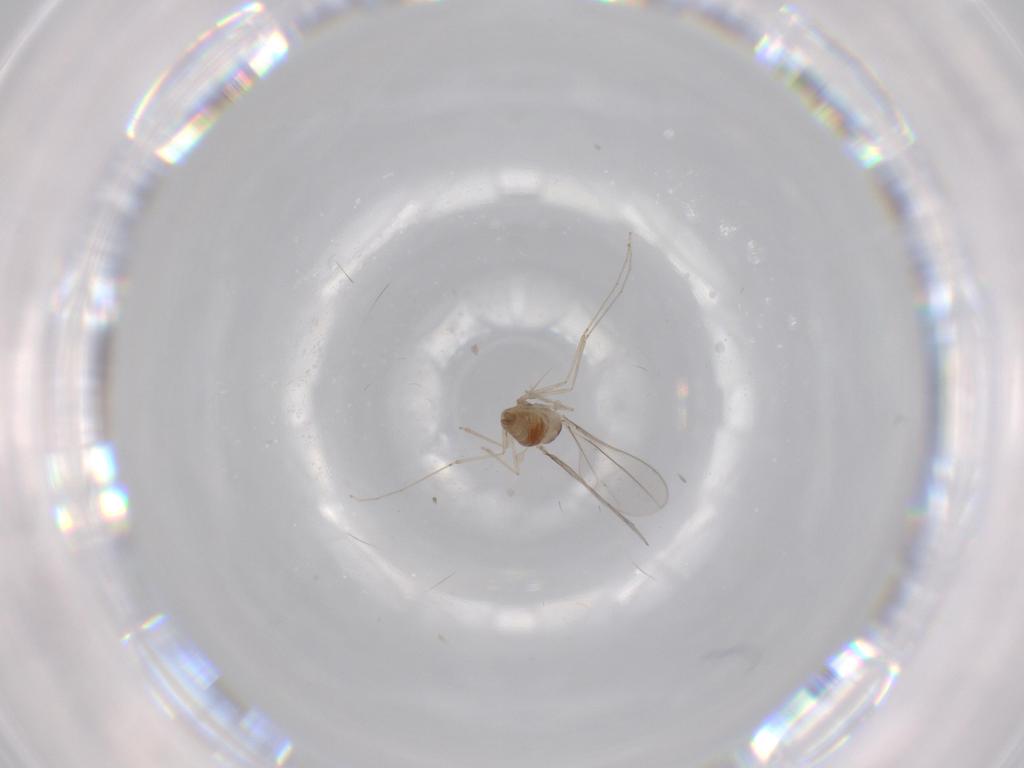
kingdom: Animalia
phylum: Arthropoda
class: Insecta
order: Diptera
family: Cecidomyiidae
